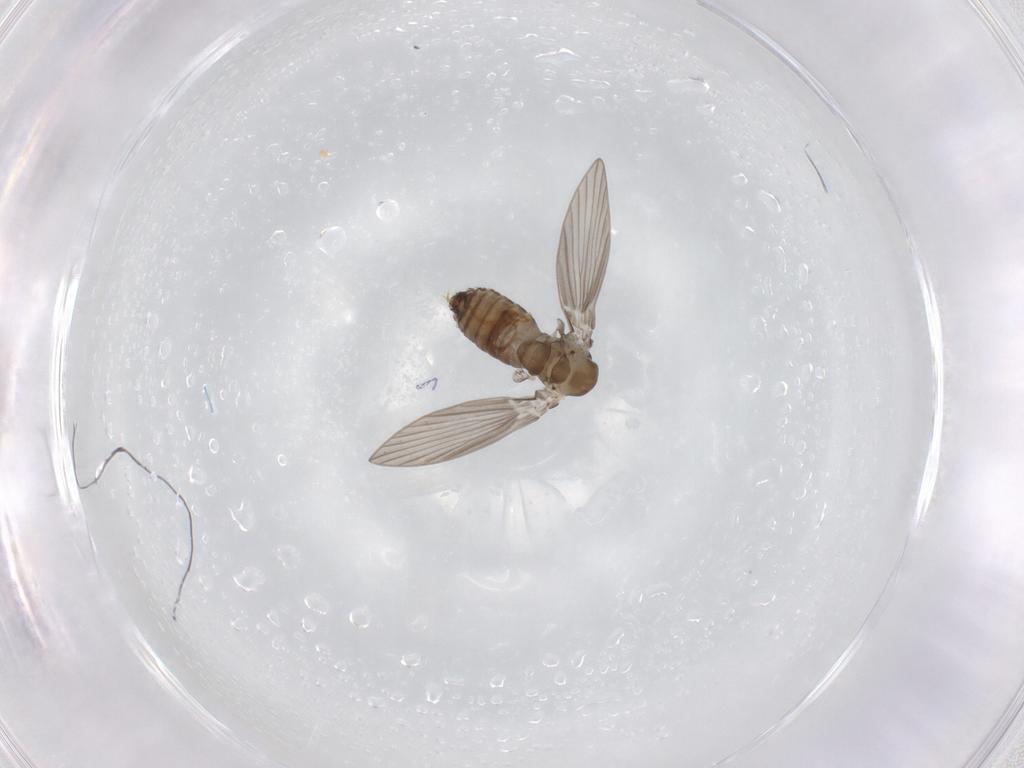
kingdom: Animalia
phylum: Arthropoda
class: Insecta
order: Diptera
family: Psychodidae
